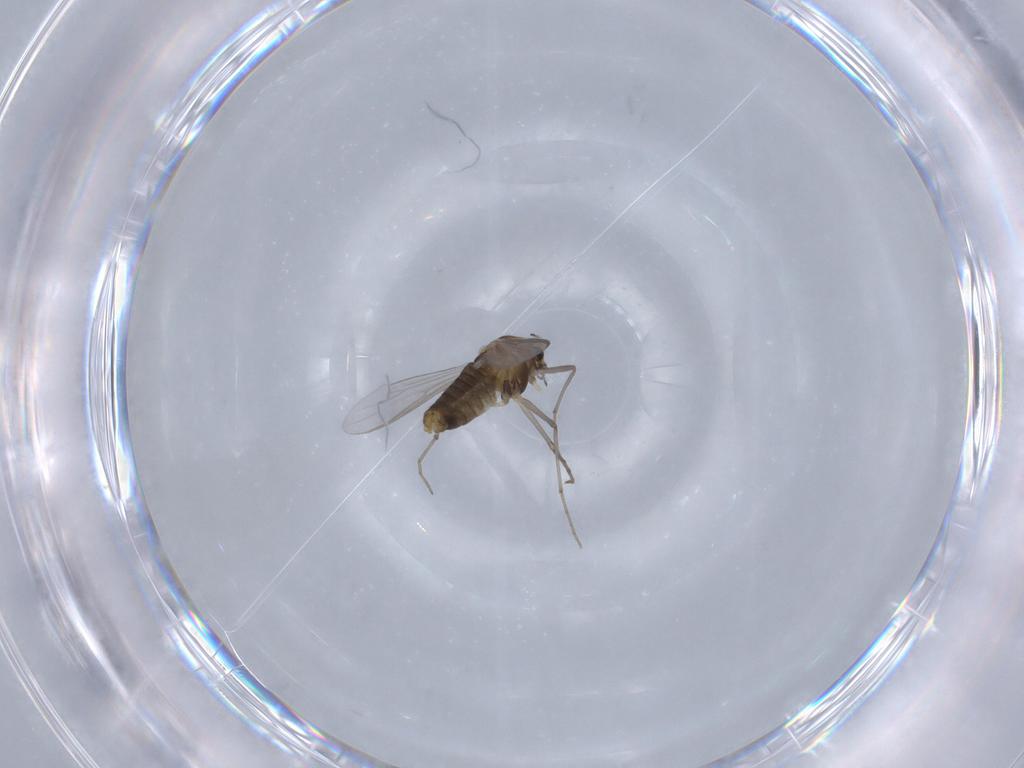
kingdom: Animalia
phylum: Arthropoda
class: Insecta
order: Diptera
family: Chironomidae
